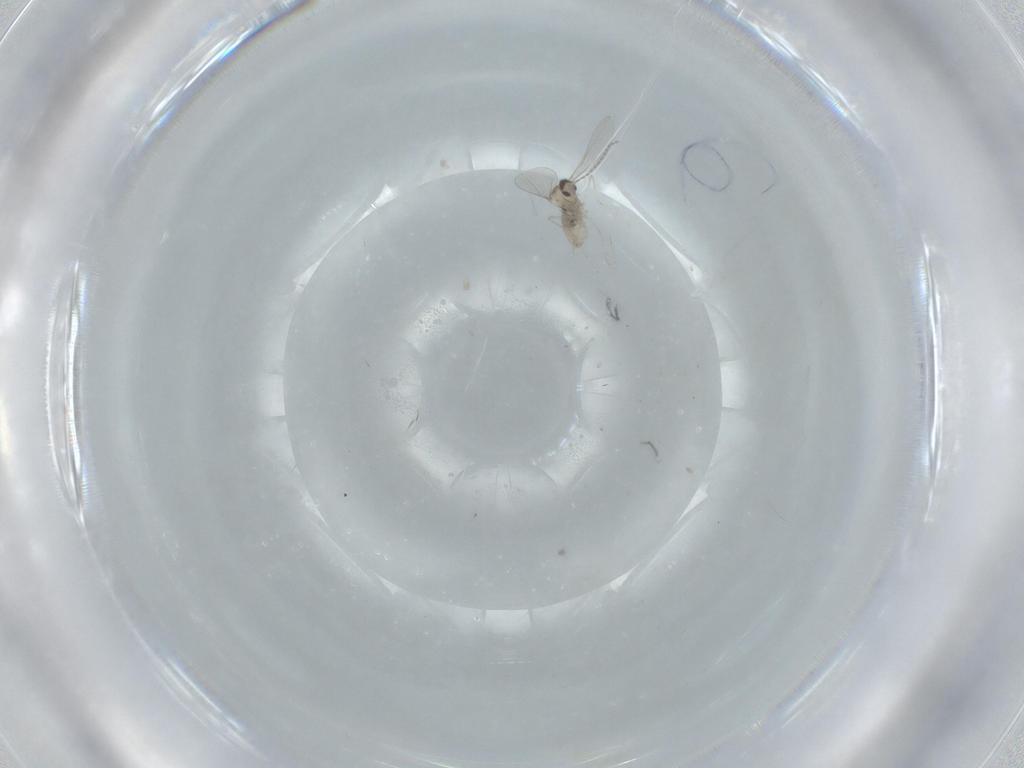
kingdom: Animalia
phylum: Arthropoda
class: Insecta
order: Diptera
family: Cecidomyiidae
